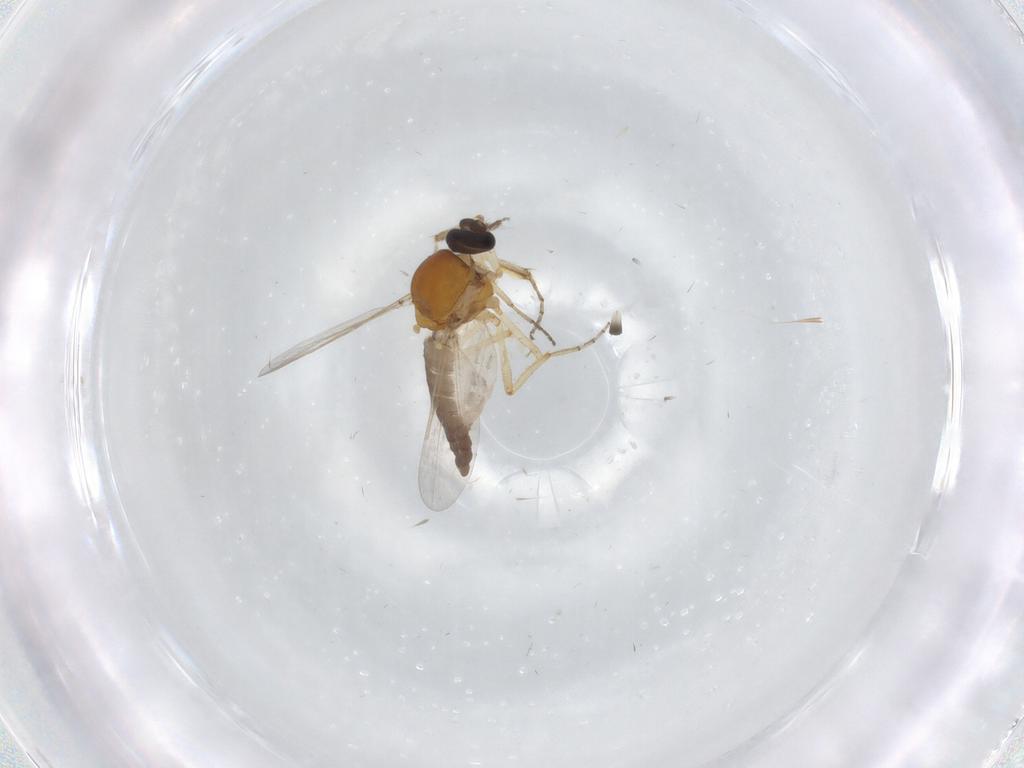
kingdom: Animalia
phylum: Arthropoda
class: Insecta
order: Diptera
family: Ceratopogonidae
